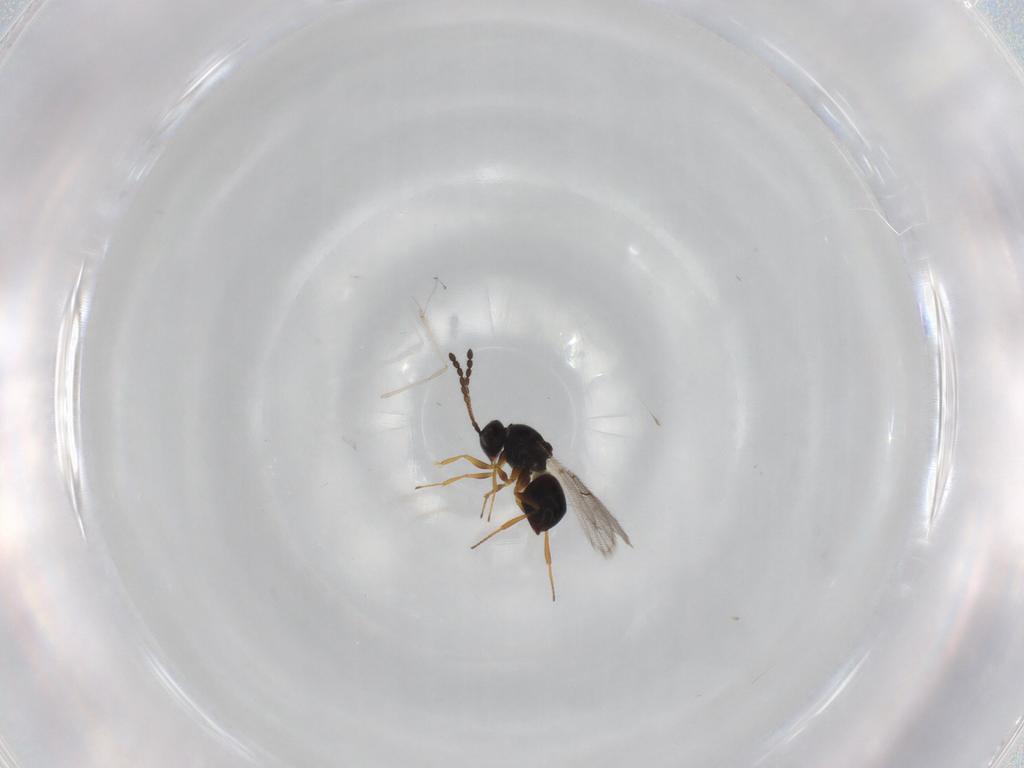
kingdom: Animalia
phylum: Arthropoda
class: Insecta
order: Hymenoptera
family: Figitidae
